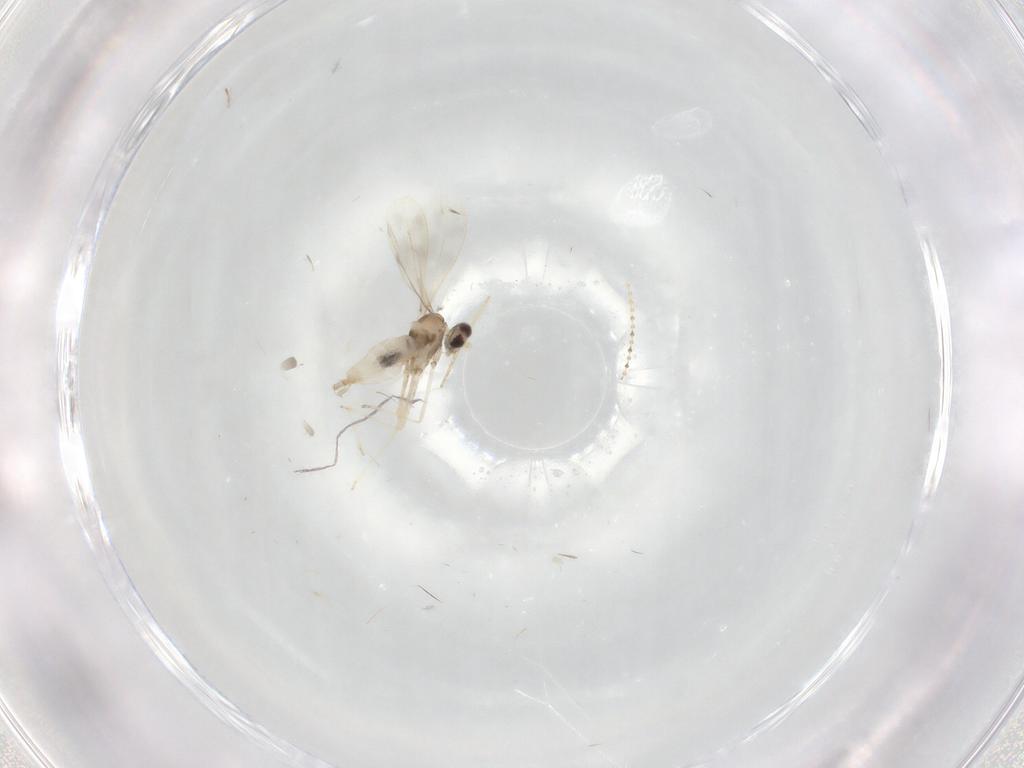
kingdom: Animalia
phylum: Arthropoda
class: Insecta
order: Diptera
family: Cecidomyiidae
